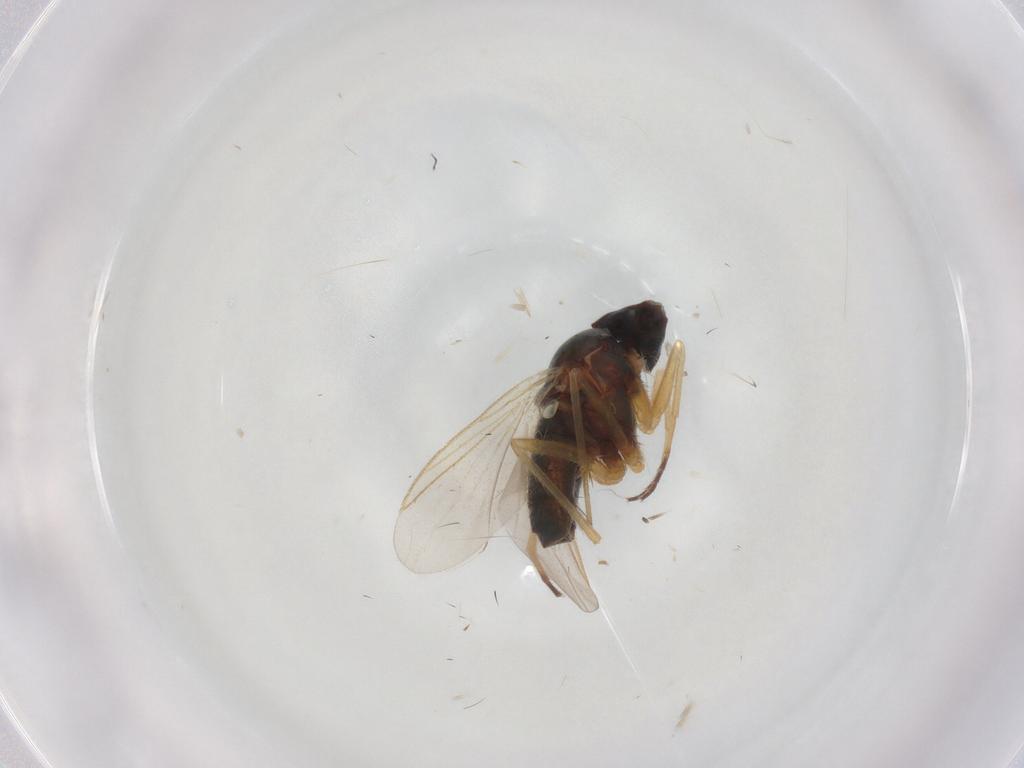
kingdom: Animalia
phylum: Arthropoda
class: Insecta
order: Diptera
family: Dolichopodidae
